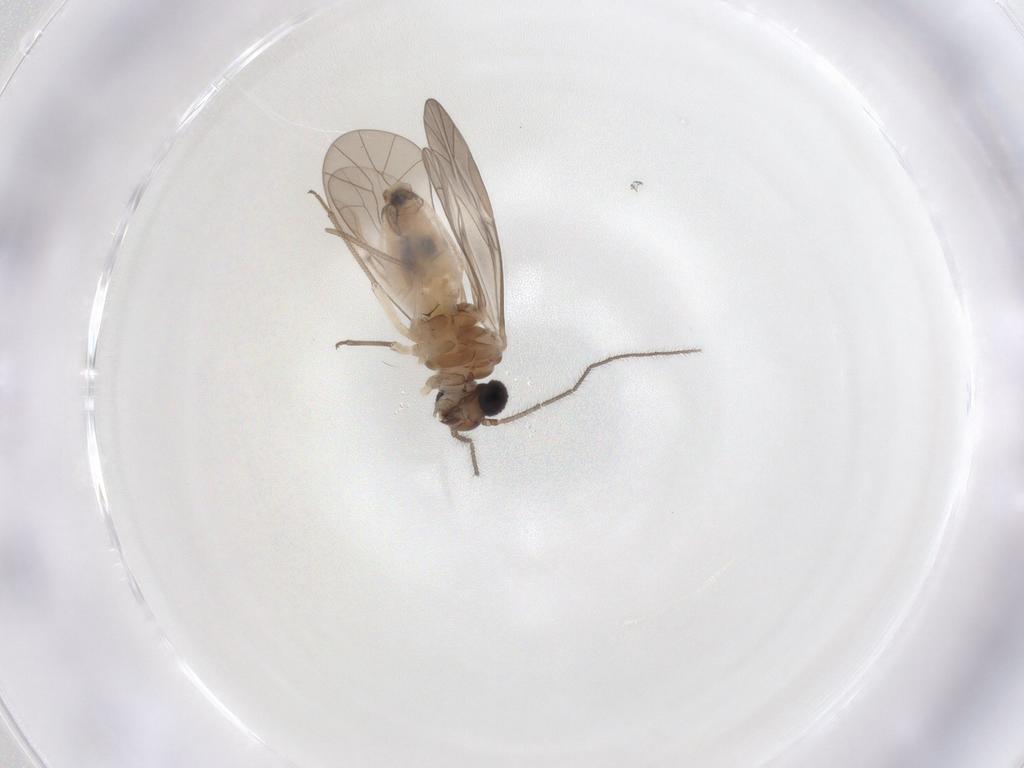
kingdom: Animalia
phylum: Arthropoda
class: Insecta
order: Psocodea
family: Peripsocidae
